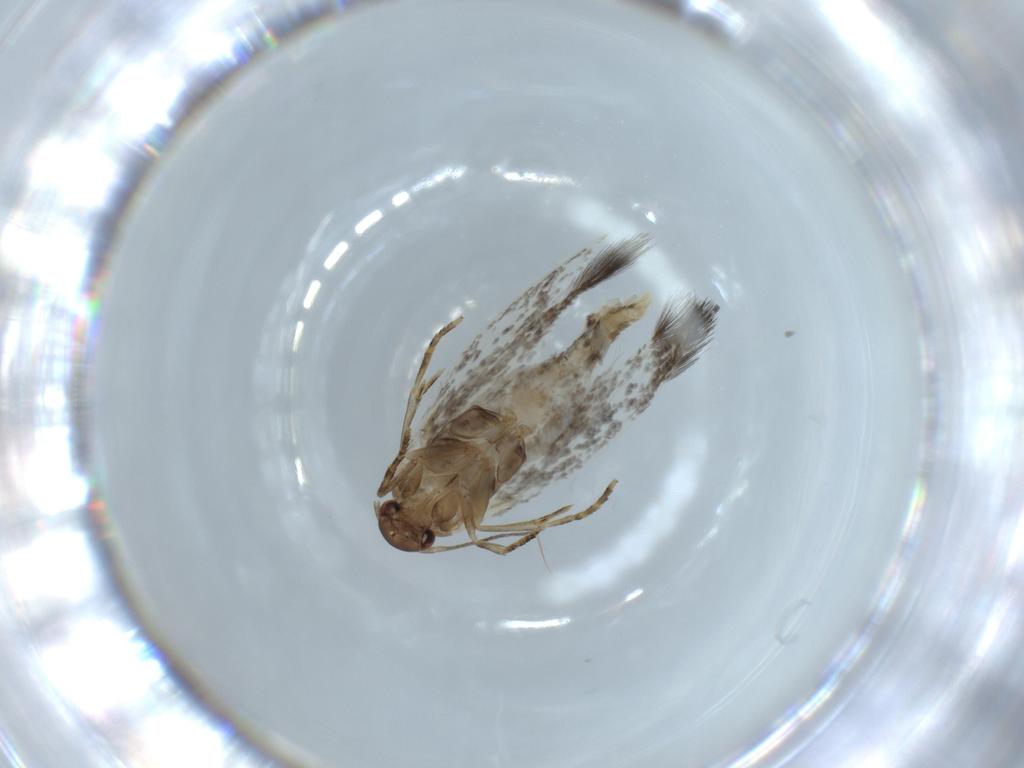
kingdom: Animalia
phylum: Arthropoda
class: Insecta
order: Lepidoptera
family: Gelechiidae
